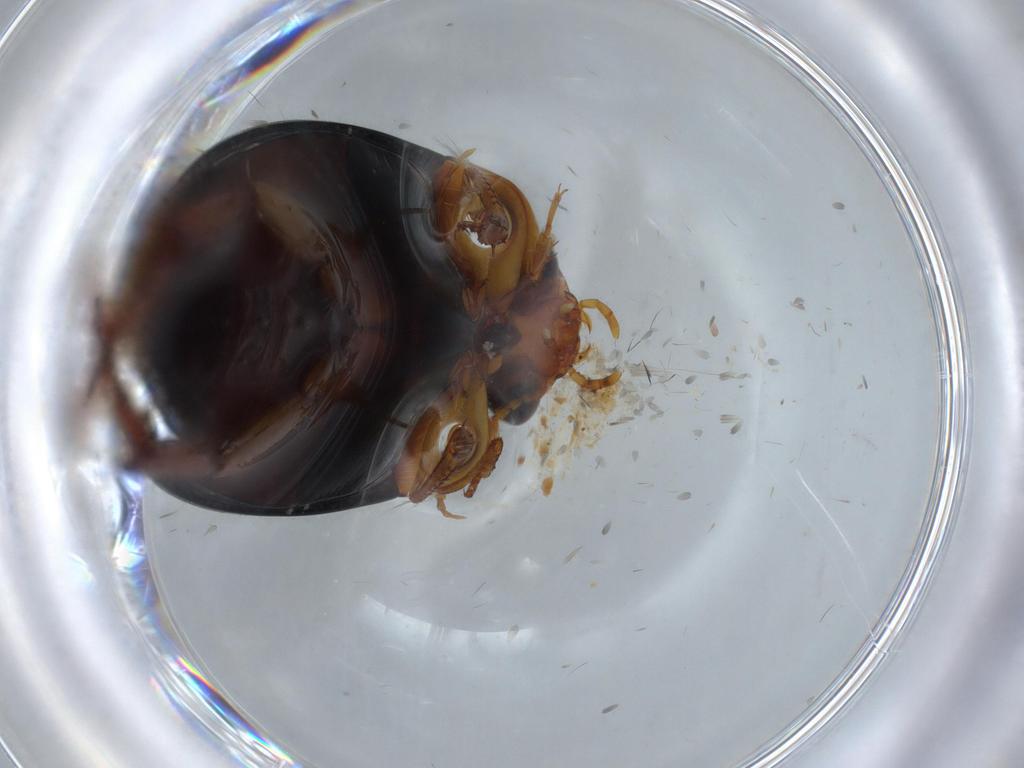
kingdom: Animalia
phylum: Arthropoda
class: Insecta
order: Coleoptera
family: Dytiscidae
